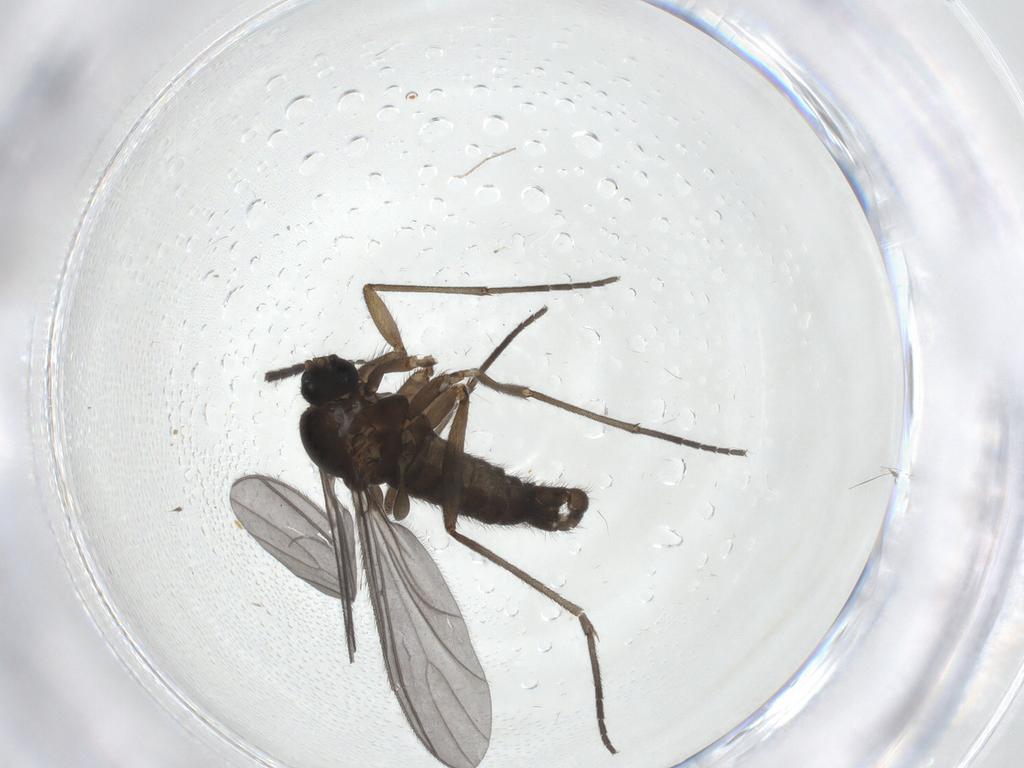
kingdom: Animalia
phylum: Arthropoda
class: Insecta
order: Diptera
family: Sciaridae
